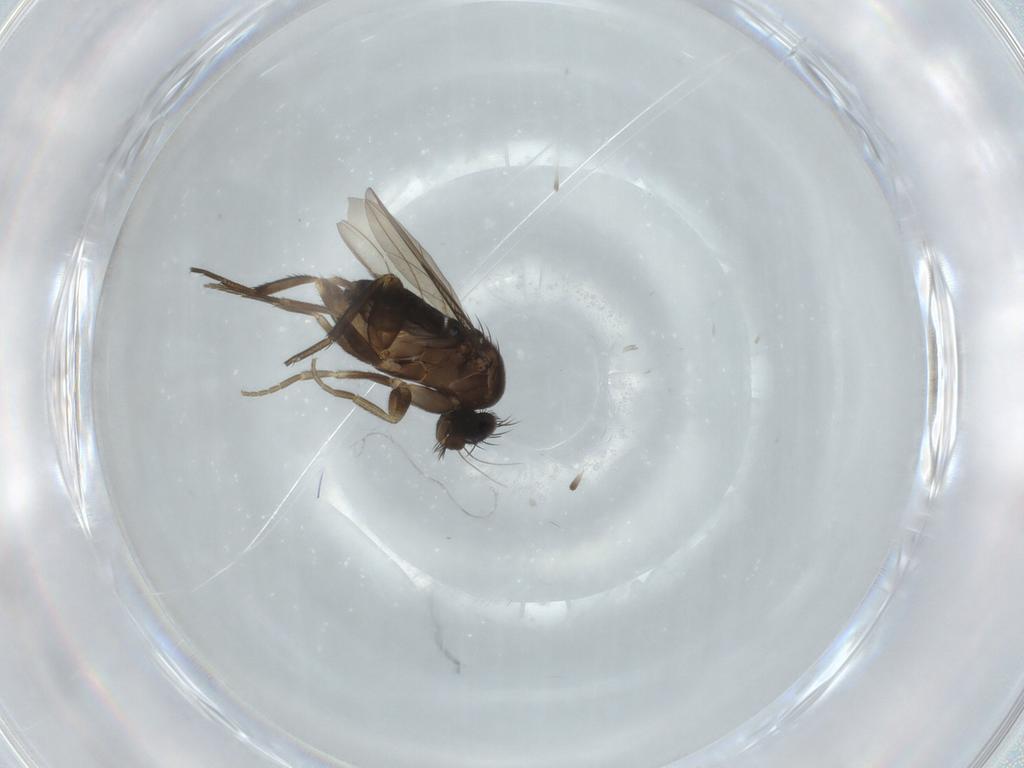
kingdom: Animalia
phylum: Arthropoda
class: Insecta
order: Diptera
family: Phoridae
